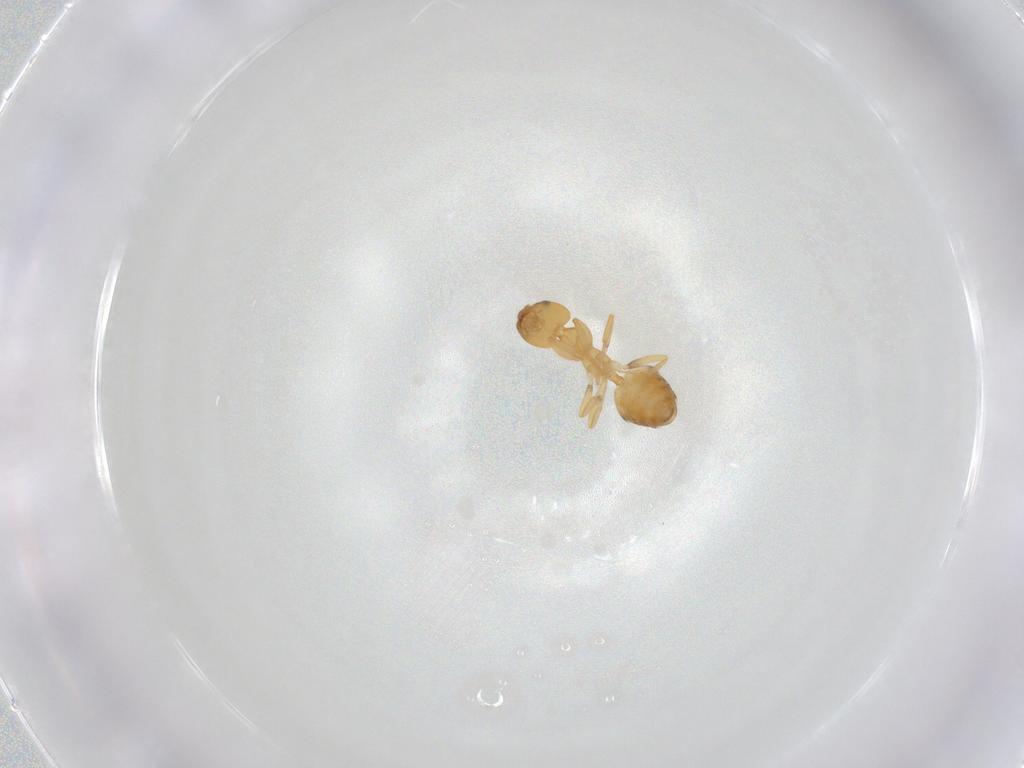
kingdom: Animalia
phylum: Arthropoda
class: Insecta
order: Hymenoptera
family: Formicidae
